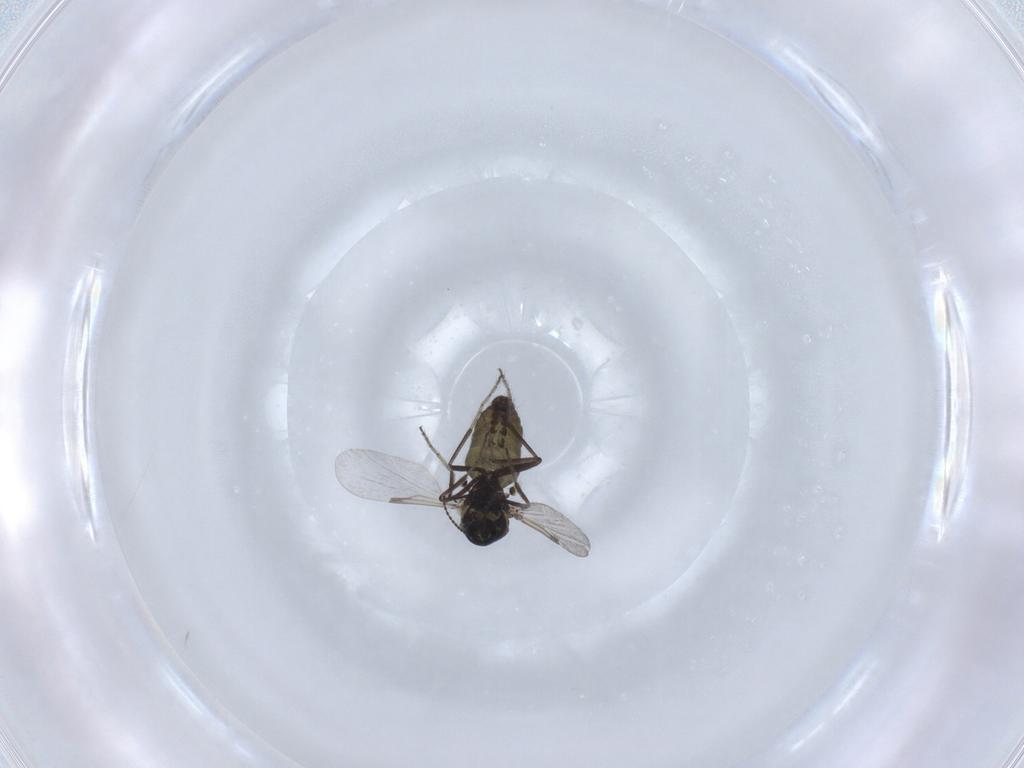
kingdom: Animalia
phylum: Arthropoda
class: Insecta
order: Diptera
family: Ceratopogonidae
